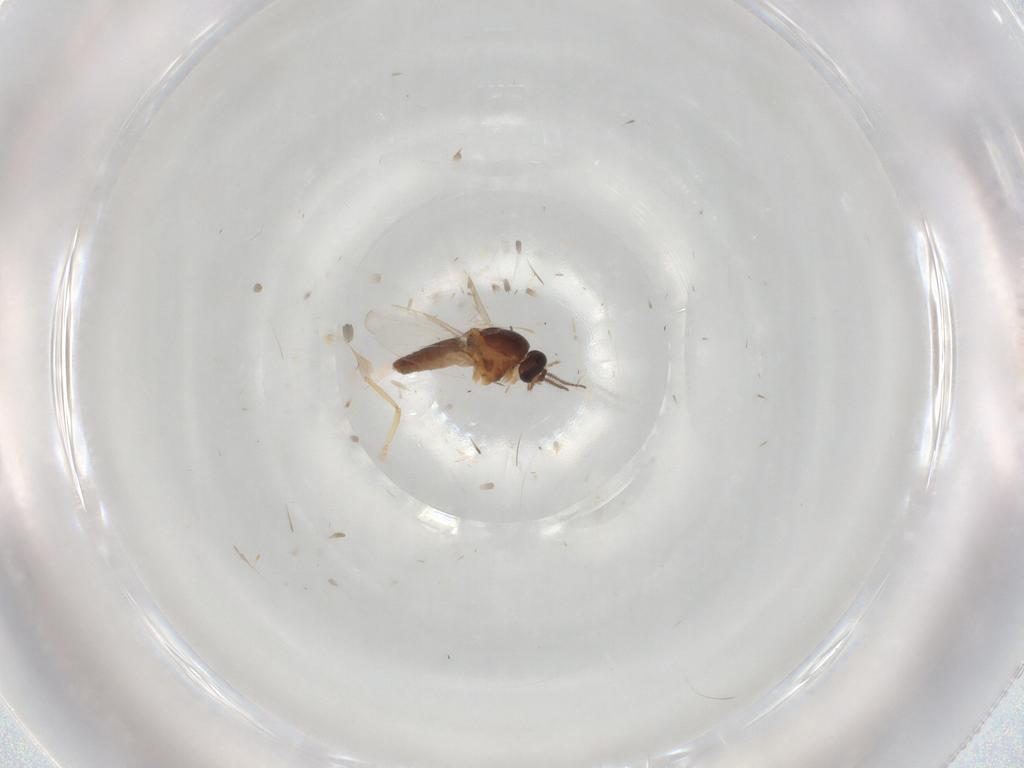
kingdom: Animalia
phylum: Arthropoda
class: Insecta
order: Diptera
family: Ceratopogonidae
